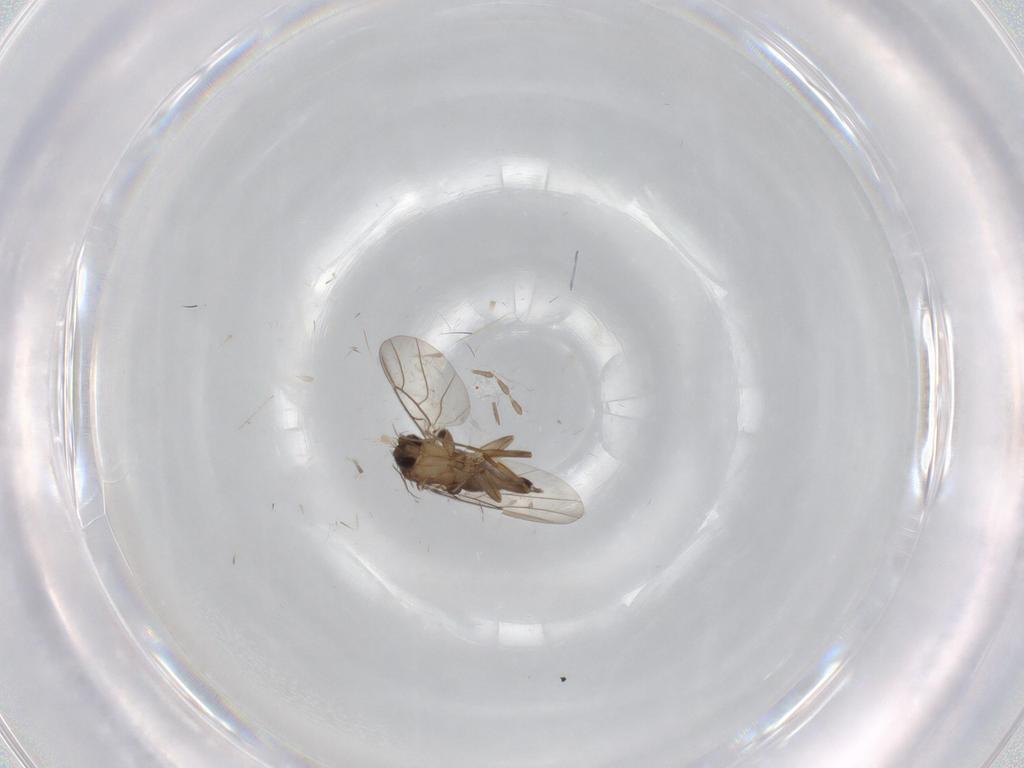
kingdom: Animalia
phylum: Arthropoda
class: Insecta
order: Diptera
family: Phoridae
